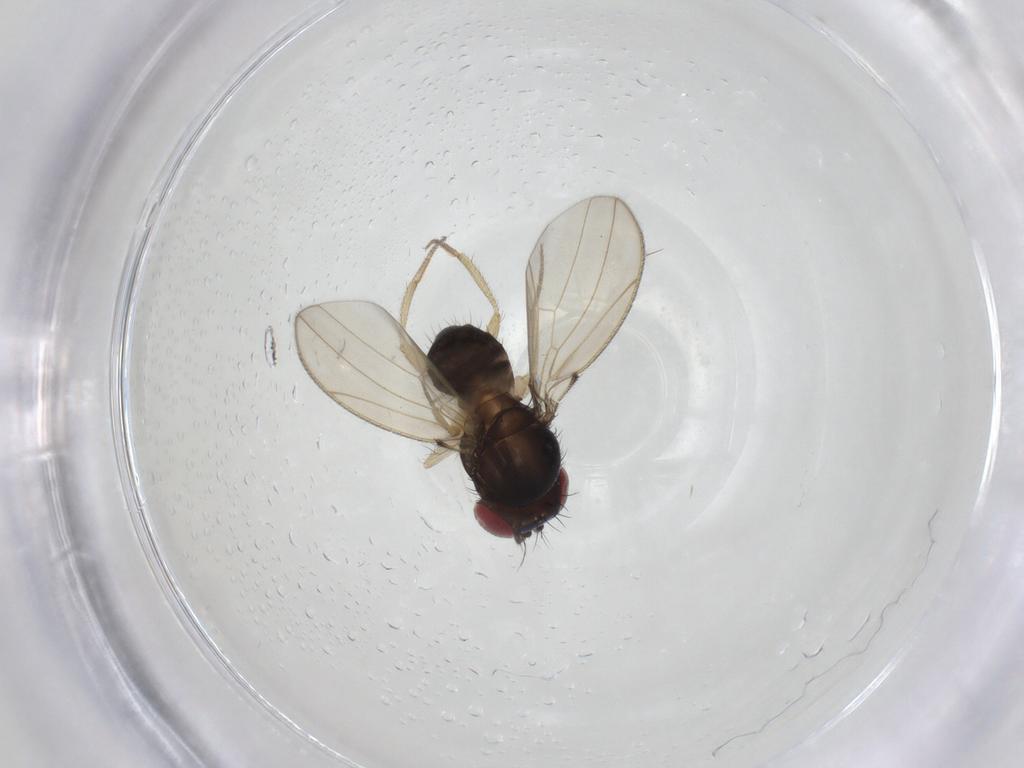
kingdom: Animalia
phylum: Arthropoda
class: Insecta
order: Diptera
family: Drosophilidae
